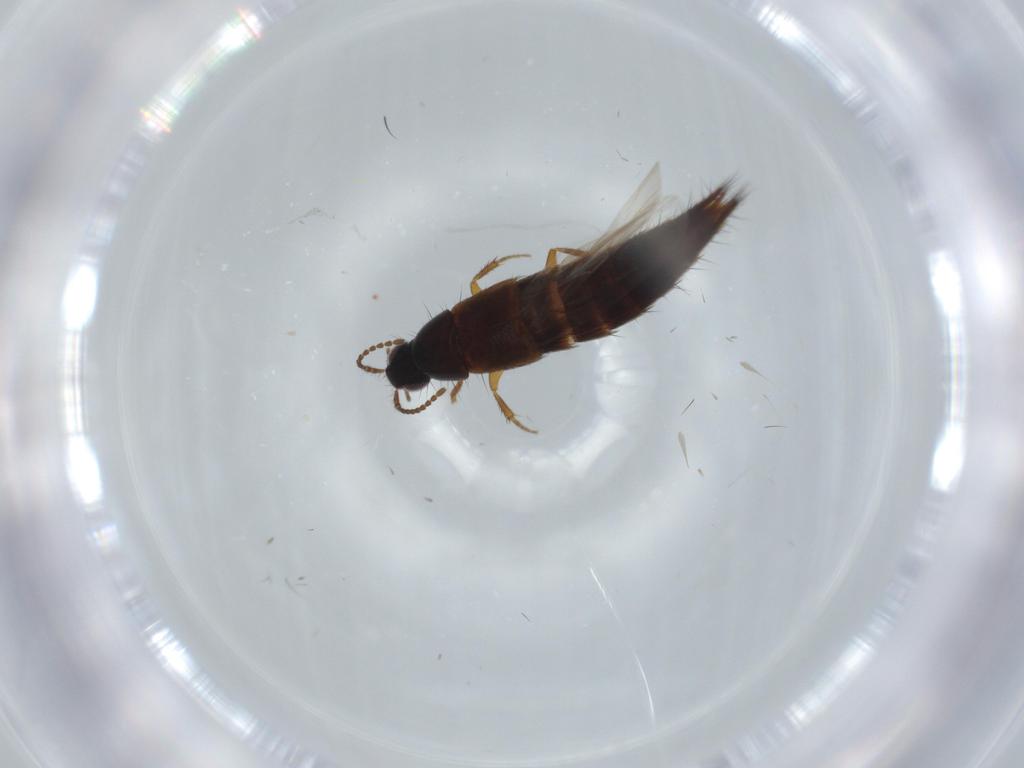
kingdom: Animalia
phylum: Arthropoda
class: Insecta
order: Coleoptera
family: Mordellidae
